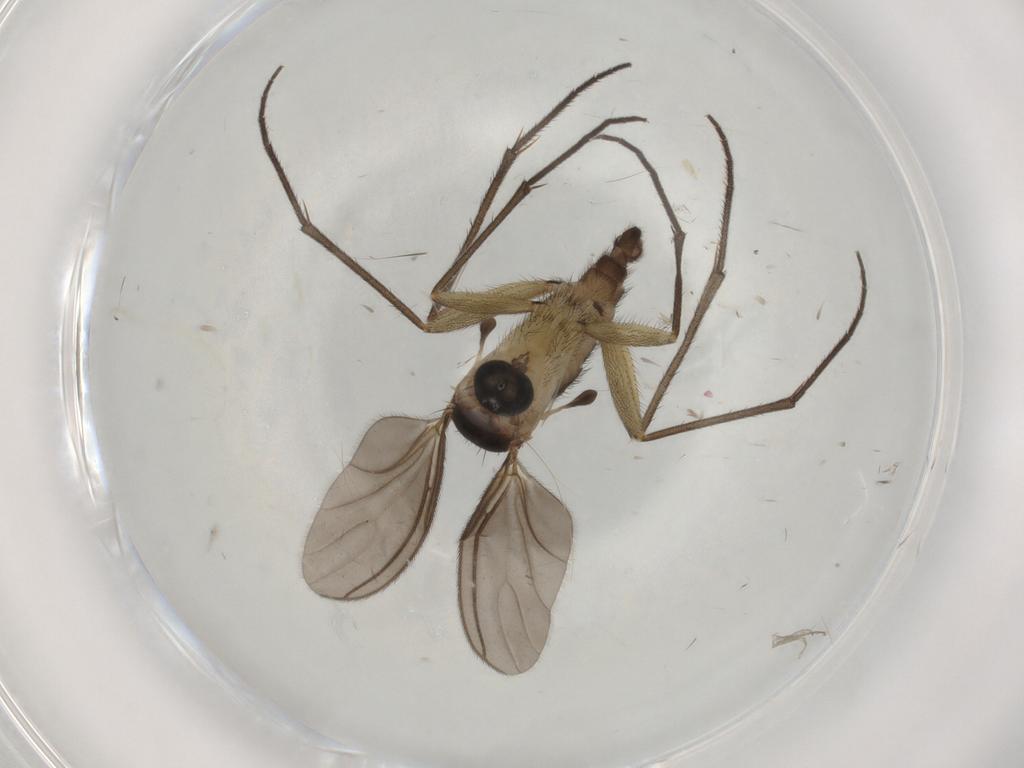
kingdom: Animalia
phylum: Arthropoda
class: Insecta
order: Diptera
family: Sciaridae
